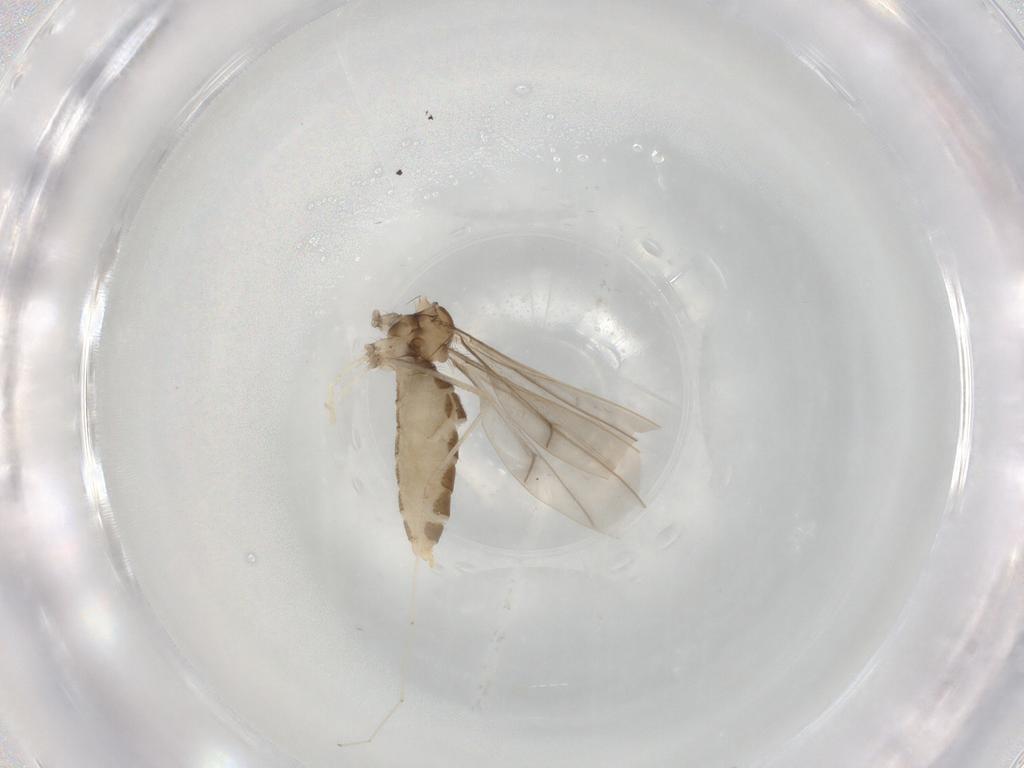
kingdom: Animalia
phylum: Arthropoda
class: Insecta
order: Diptera
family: Cecidomyiidae
